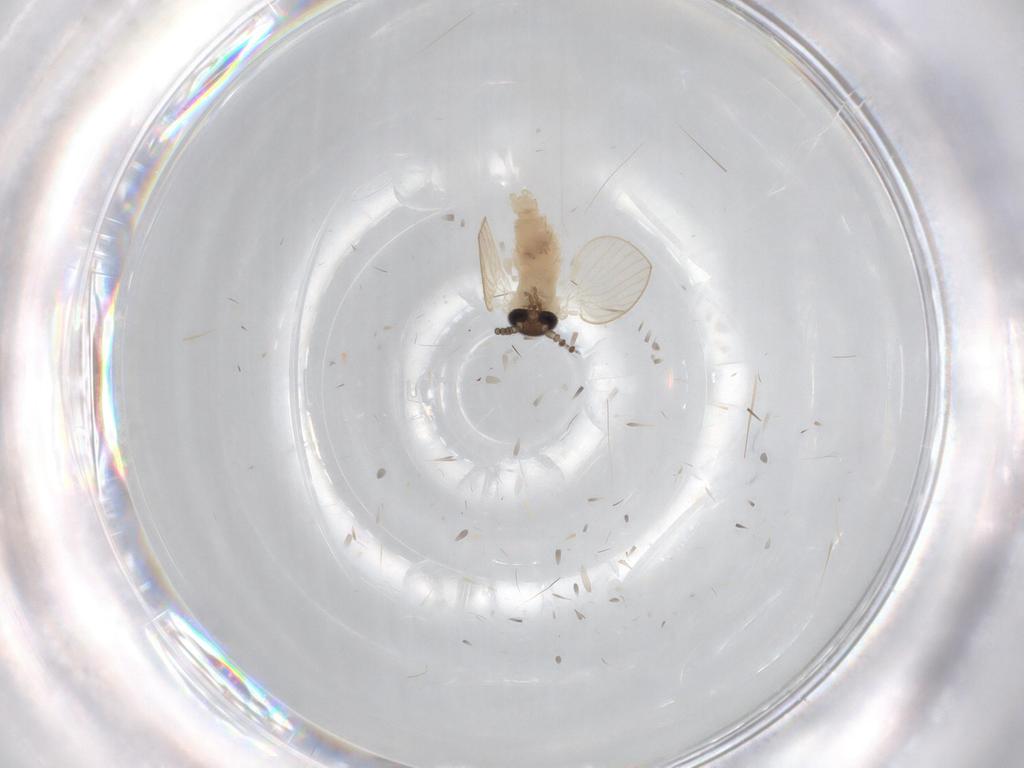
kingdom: Animalia
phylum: Arthropoda
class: Insecta
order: Diptera
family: Psychodidae
